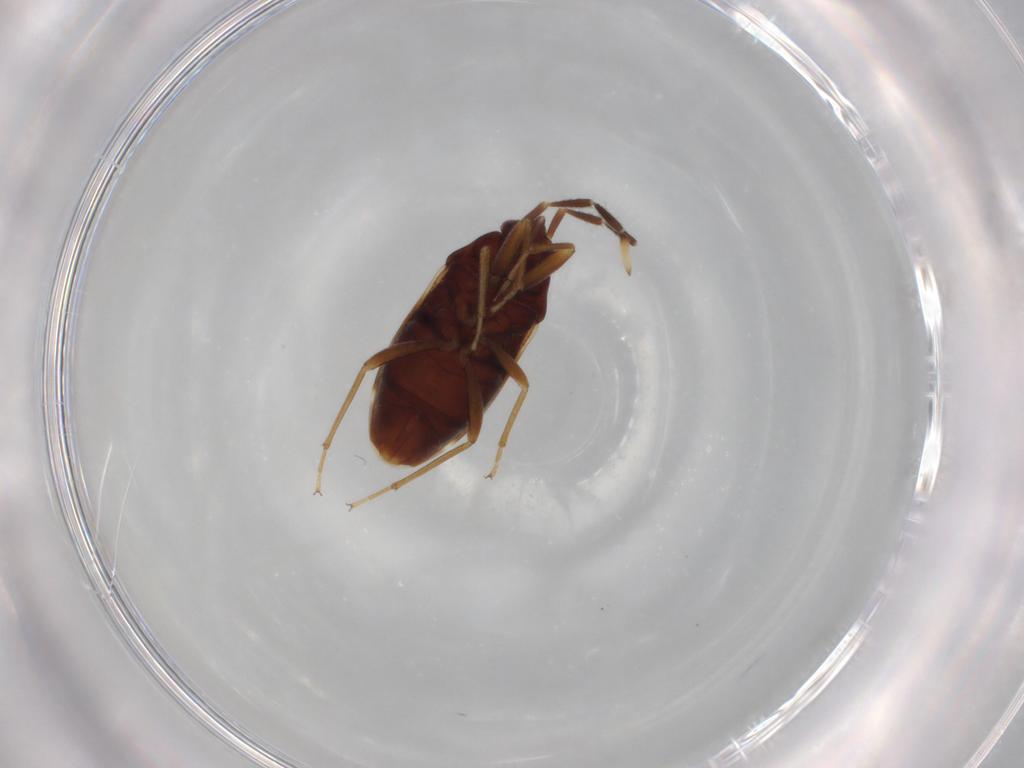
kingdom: Animalia
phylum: Arthropoda
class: Insecta
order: Hemiptera
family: Rhyparochromidae
